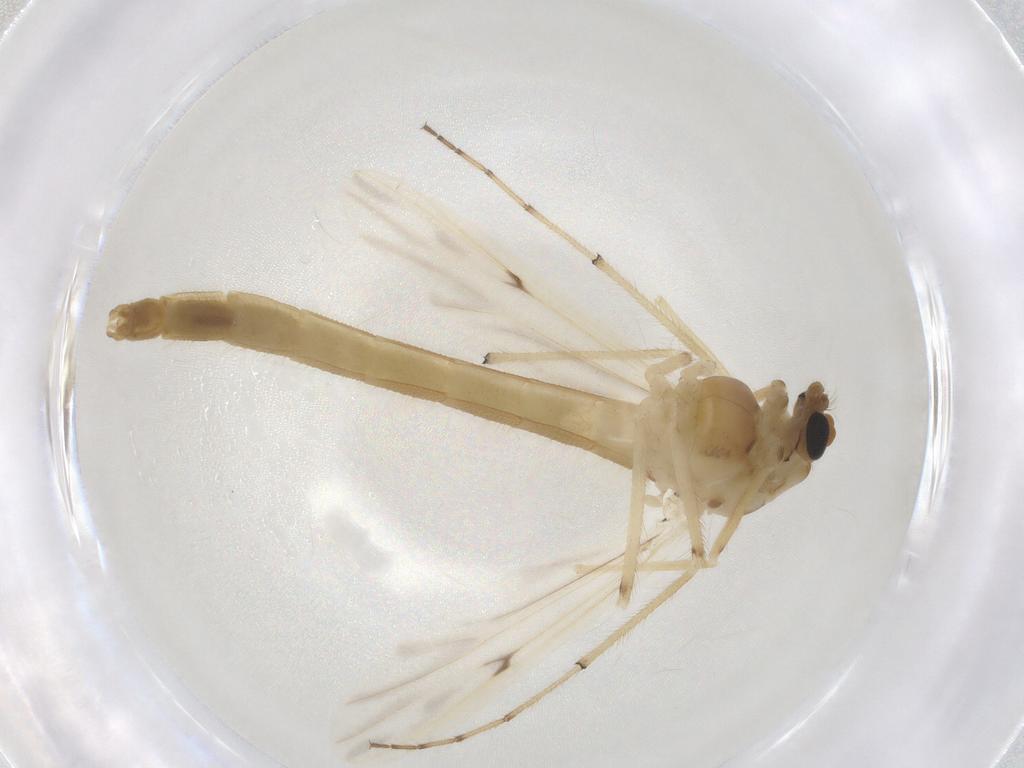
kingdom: Animalia
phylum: Arthropoda
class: Insecta
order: Diptera
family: Chironomidae
